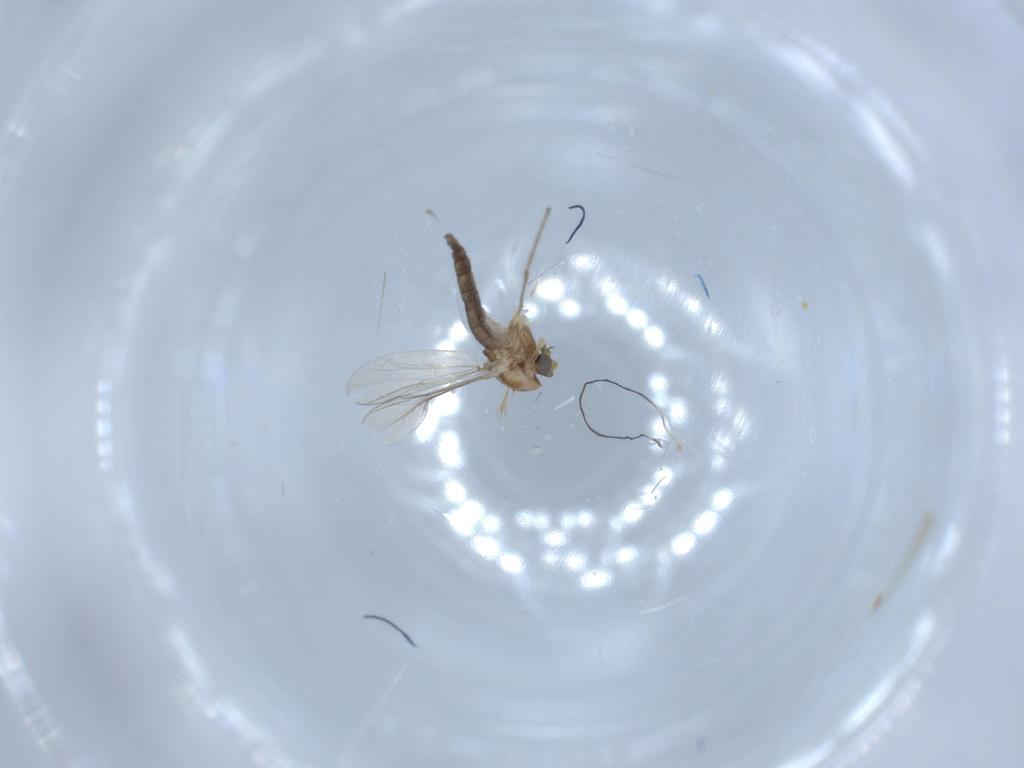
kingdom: Animalia
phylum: Arthropoda
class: Insecta
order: Diptera
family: Chironomidae
